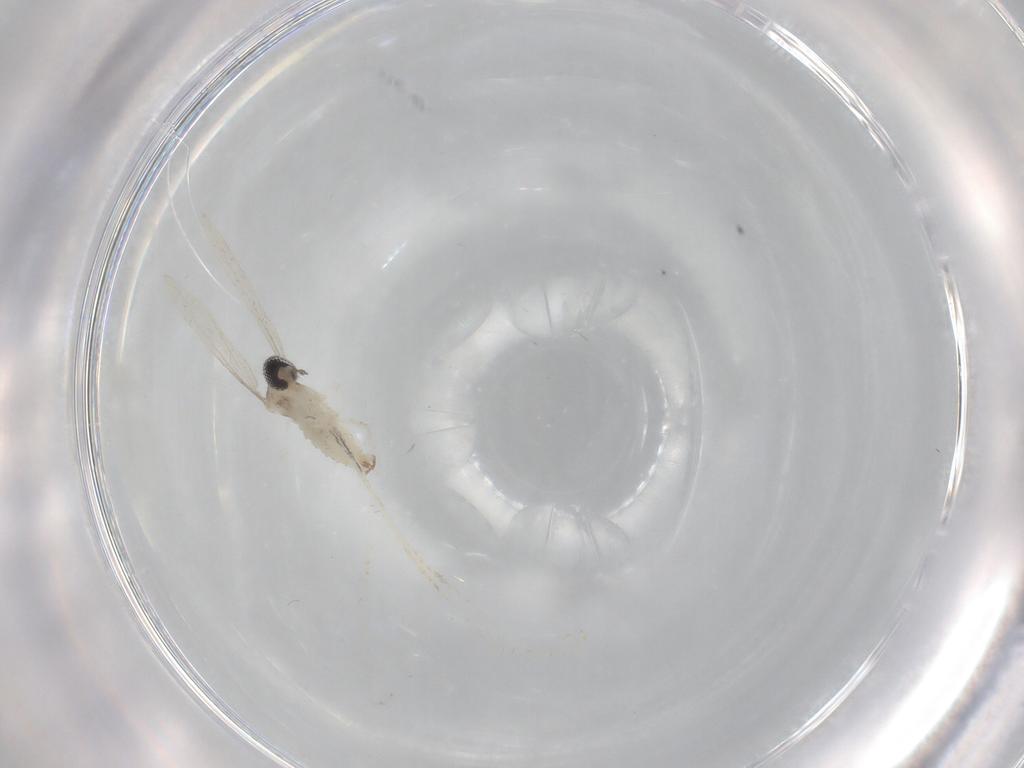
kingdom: Animalia
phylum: Arthropoda
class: Insecta
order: Diptera
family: Cecidomyiidae
